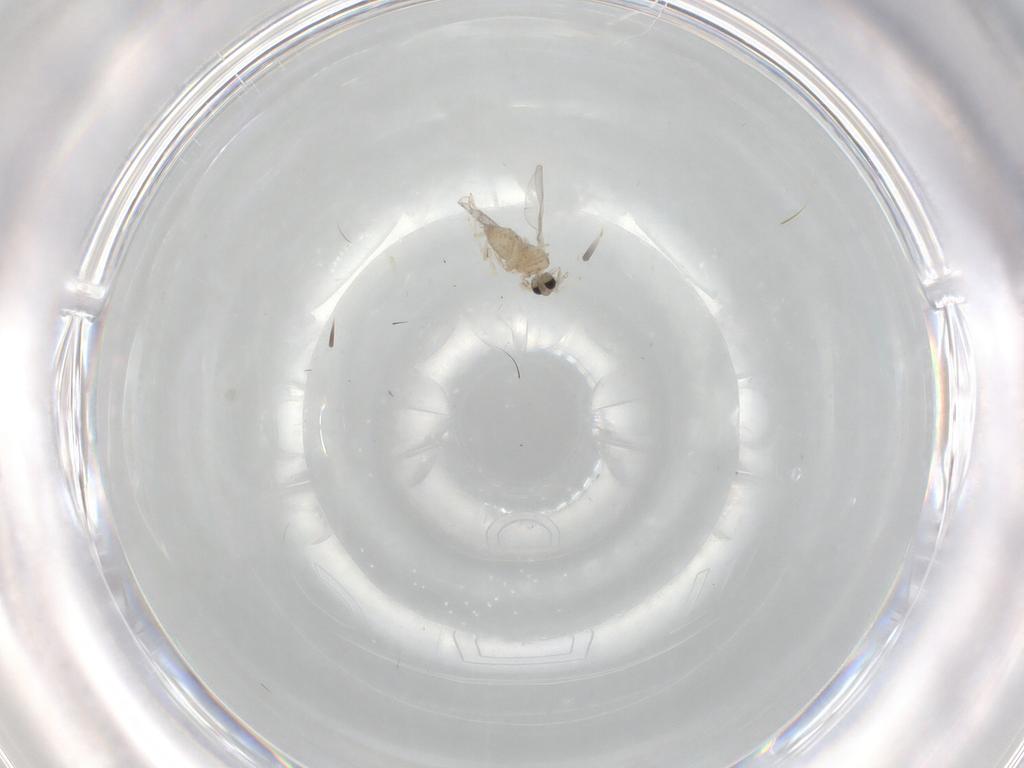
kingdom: Animalia
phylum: Arthropoda
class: Insecta
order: Diptera
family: Cecidomyiidae
